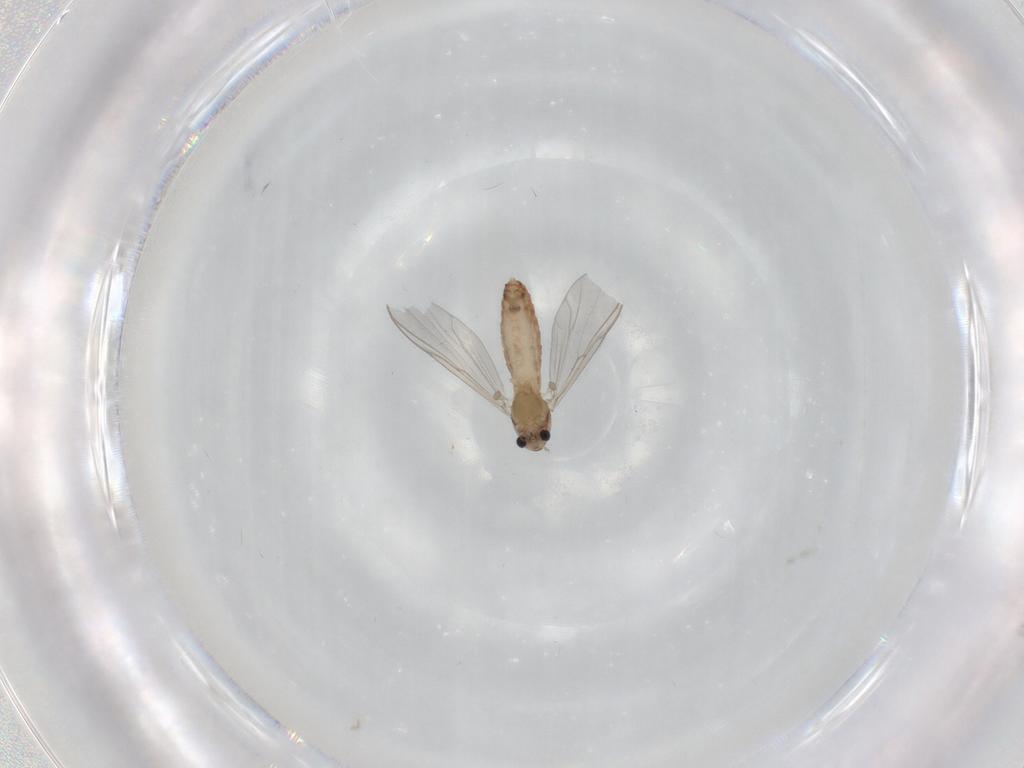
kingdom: Animalia
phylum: Arthropoda
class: Insecta
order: Diptera
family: Chironomidae
